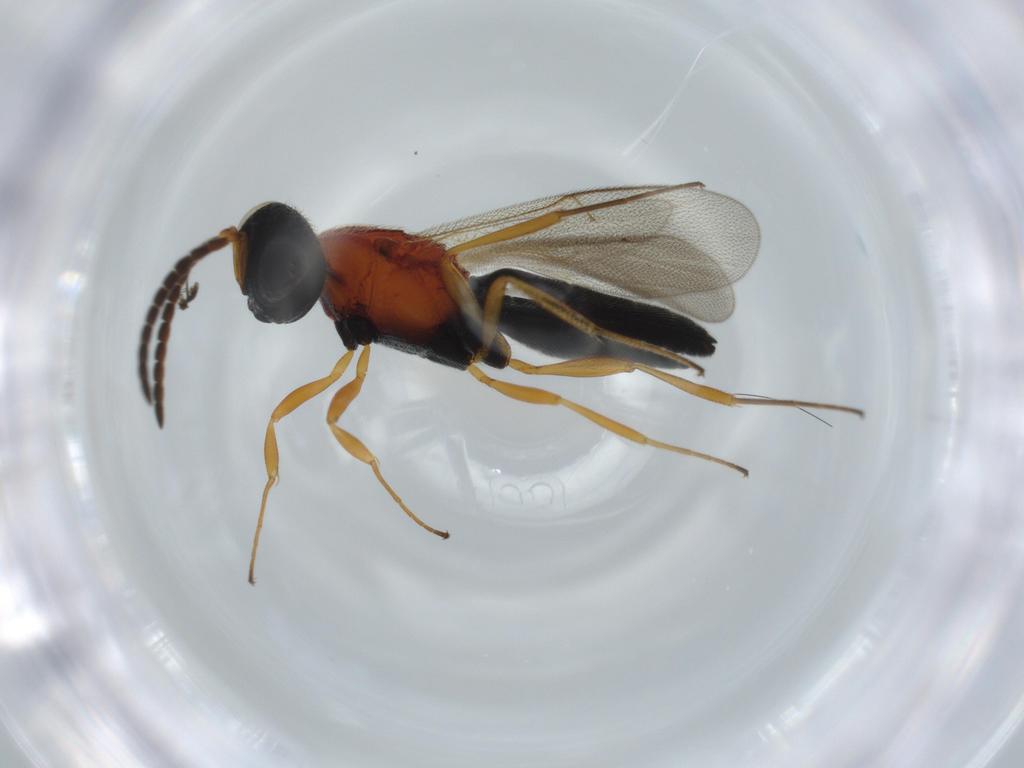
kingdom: Animalia
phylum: Arthropoda
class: Insecta
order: Hymenoptera
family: Scelionidae
